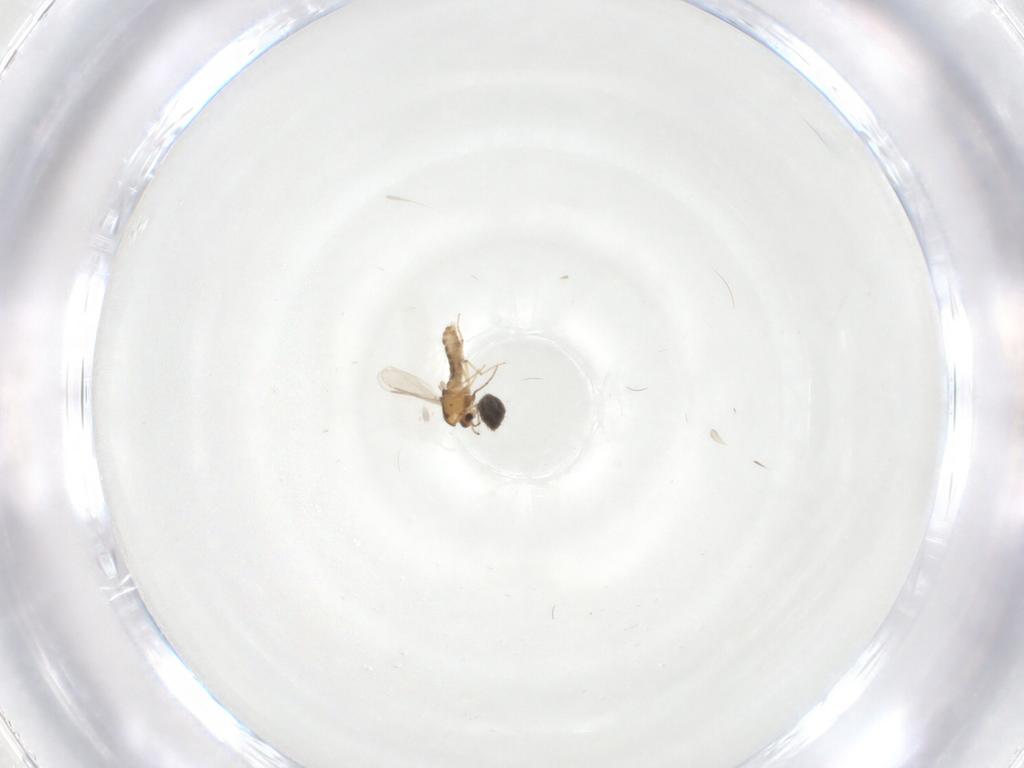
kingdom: Animalia
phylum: Arthropoda
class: Insecta
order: Diptera
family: Chironomidae
